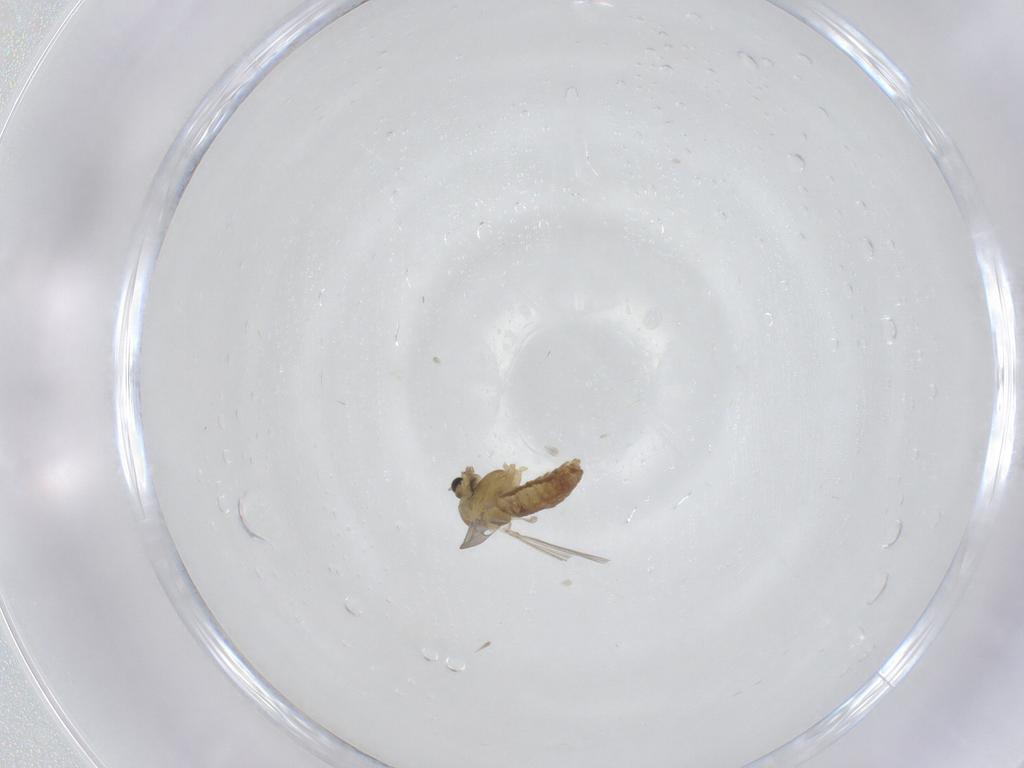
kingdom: Animalia
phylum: Arthropoda
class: Insecta
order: Diptera
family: Chironomidae
